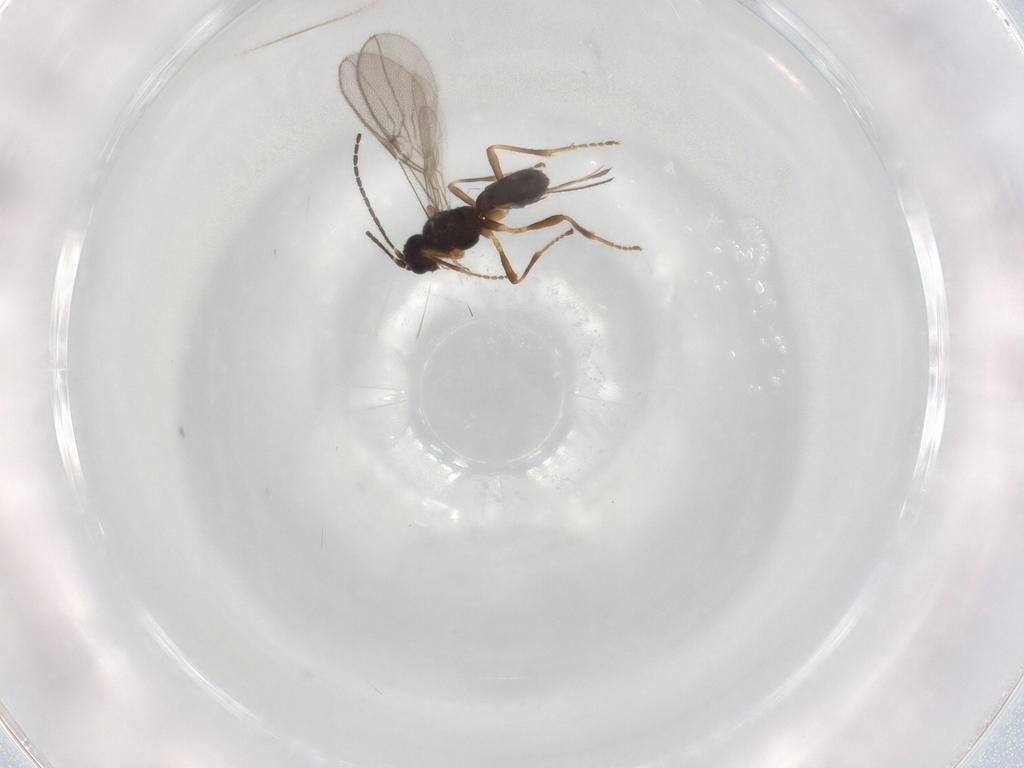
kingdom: Animalia
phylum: Arthropoda
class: Insecta
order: Hymenoptera
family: Braconidae
